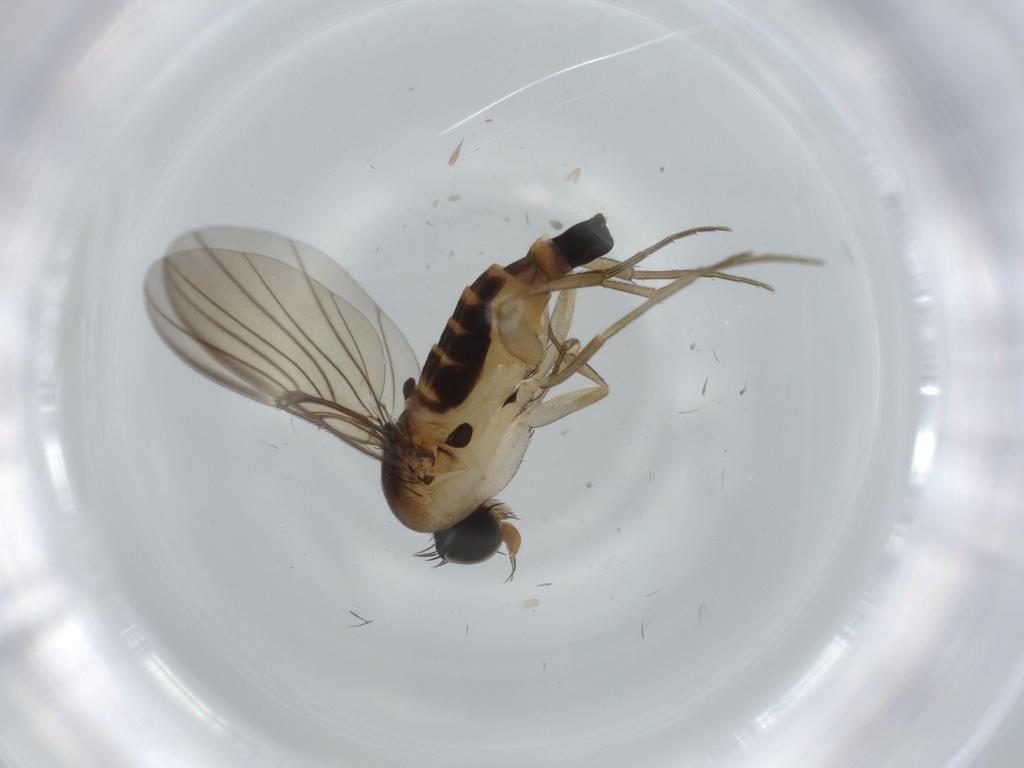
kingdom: Animalia
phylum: Arthropoda
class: Insecta
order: Diptera
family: Phoridae
